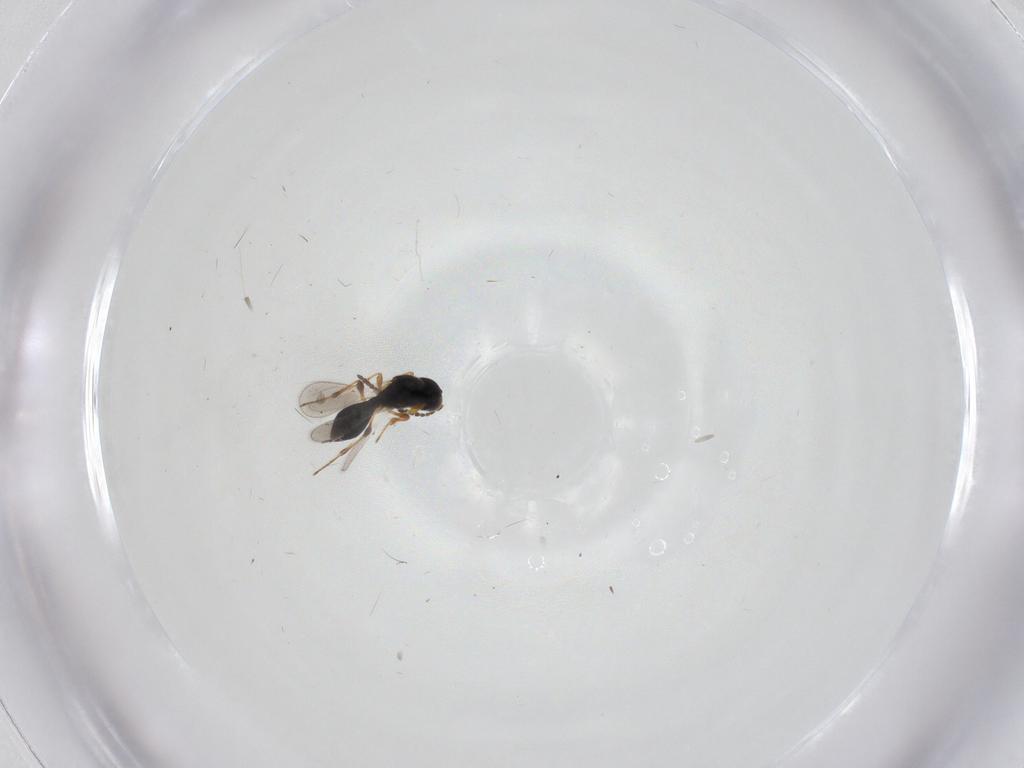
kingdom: Animalia
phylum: Arthropoda
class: Insecta
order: Hymenoptera
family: Platygastridae
